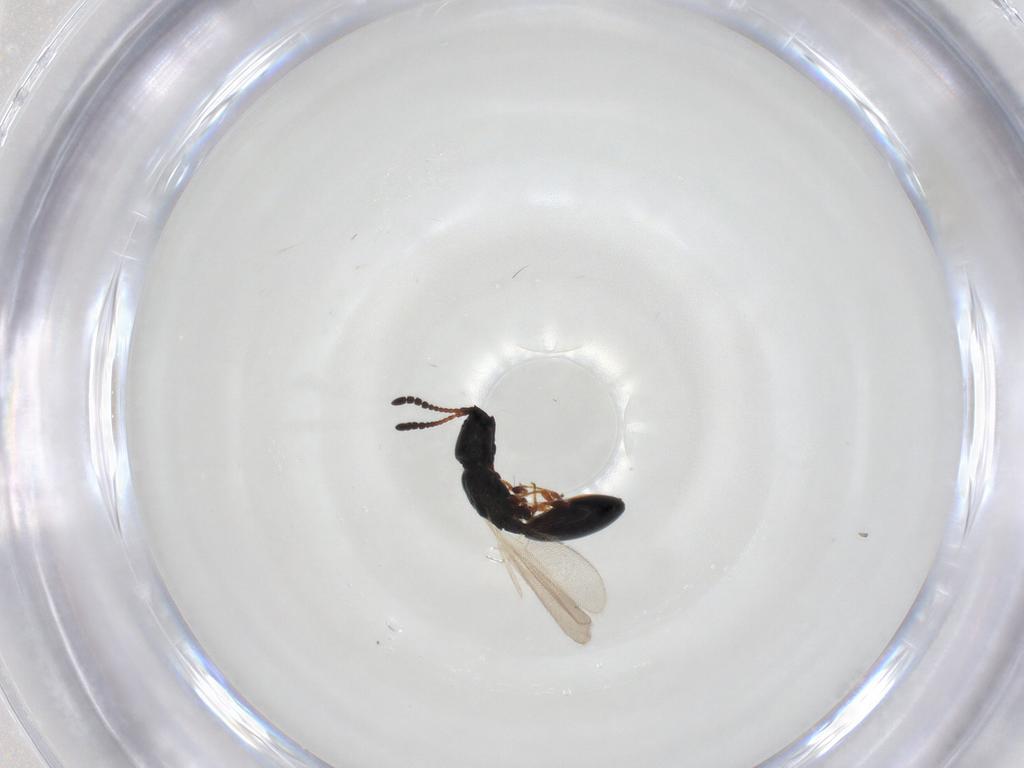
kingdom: Animalia
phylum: Arthropoda
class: Insecta
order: Hymenoptera
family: Diapriidae
